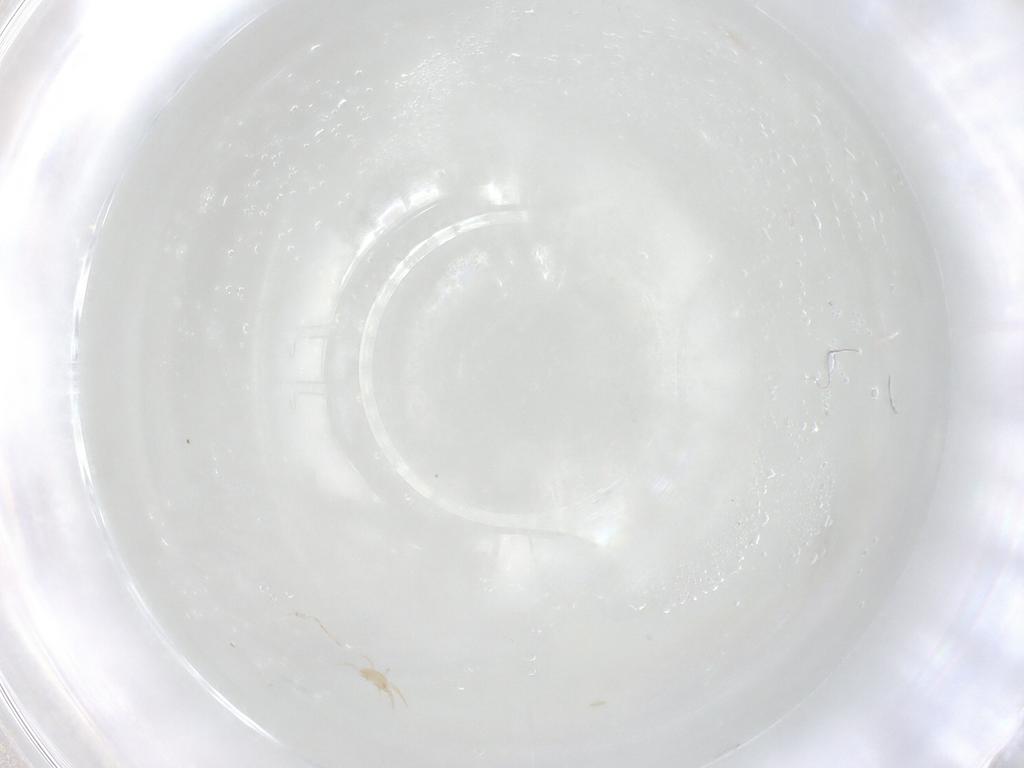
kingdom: Animalia
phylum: Arthropoda
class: Arachnida
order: Mesostigmata
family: Phytoseiidae
